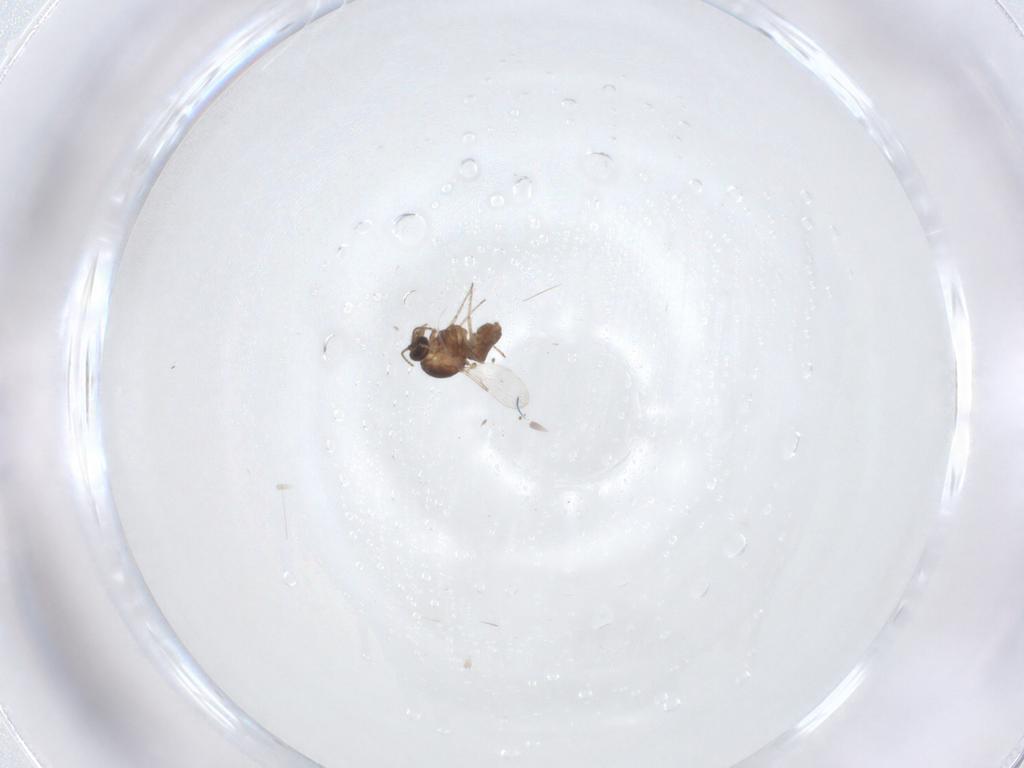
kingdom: Animalia
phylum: Arthropoda
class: Insecta
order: Diptera
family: Ceratopogonidae
